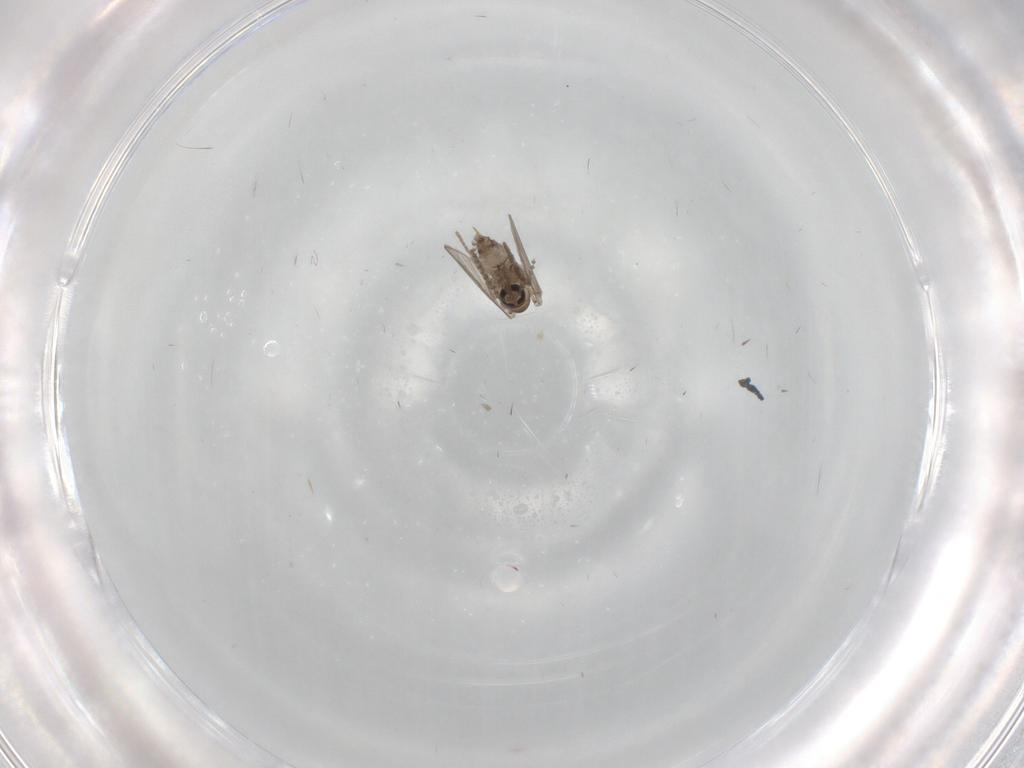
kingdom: Animalia
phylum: Arthropoda
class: Insecta
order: Diptera
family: Psychodidae
